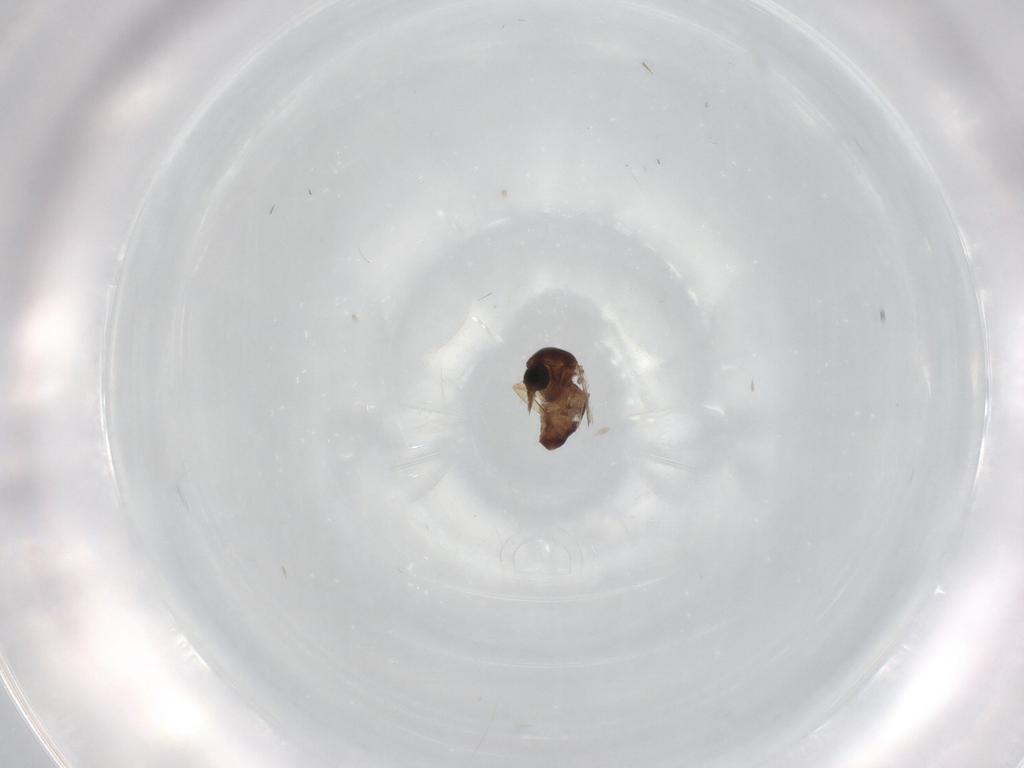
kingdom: Animalia
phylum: Arthropoda
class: Insecta
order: Diptera
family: Ceratopogonidae
